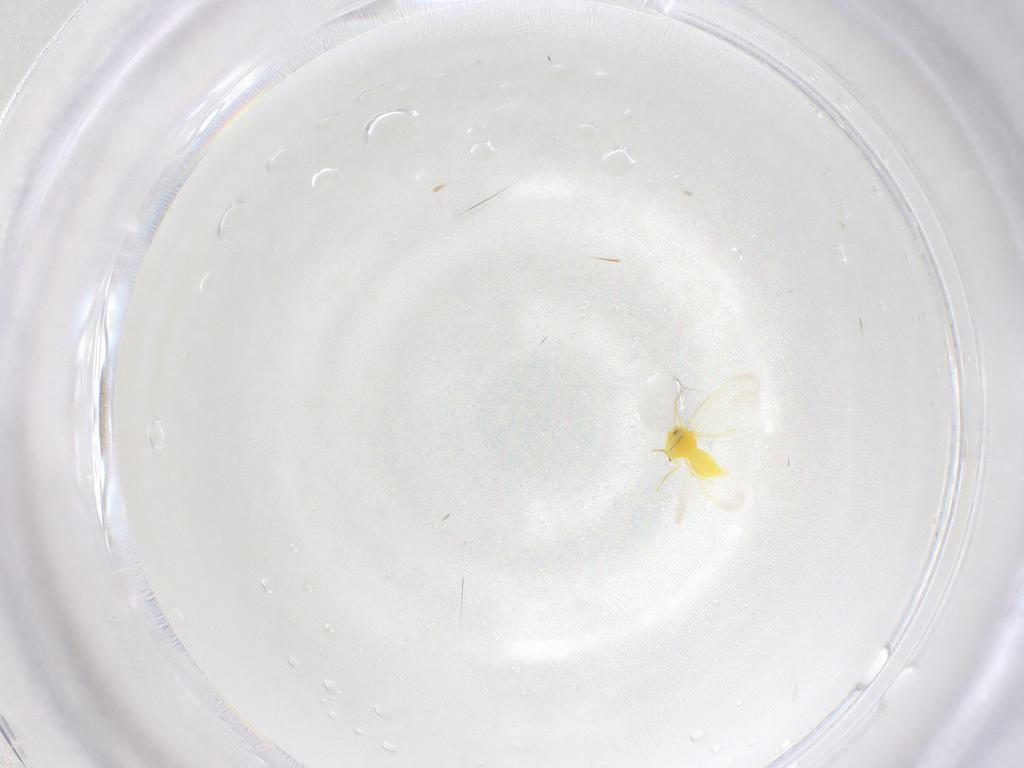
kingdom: Animalia
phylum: Arthropoda
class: Insecta
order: Hemiptera
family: Aleyrodidae
